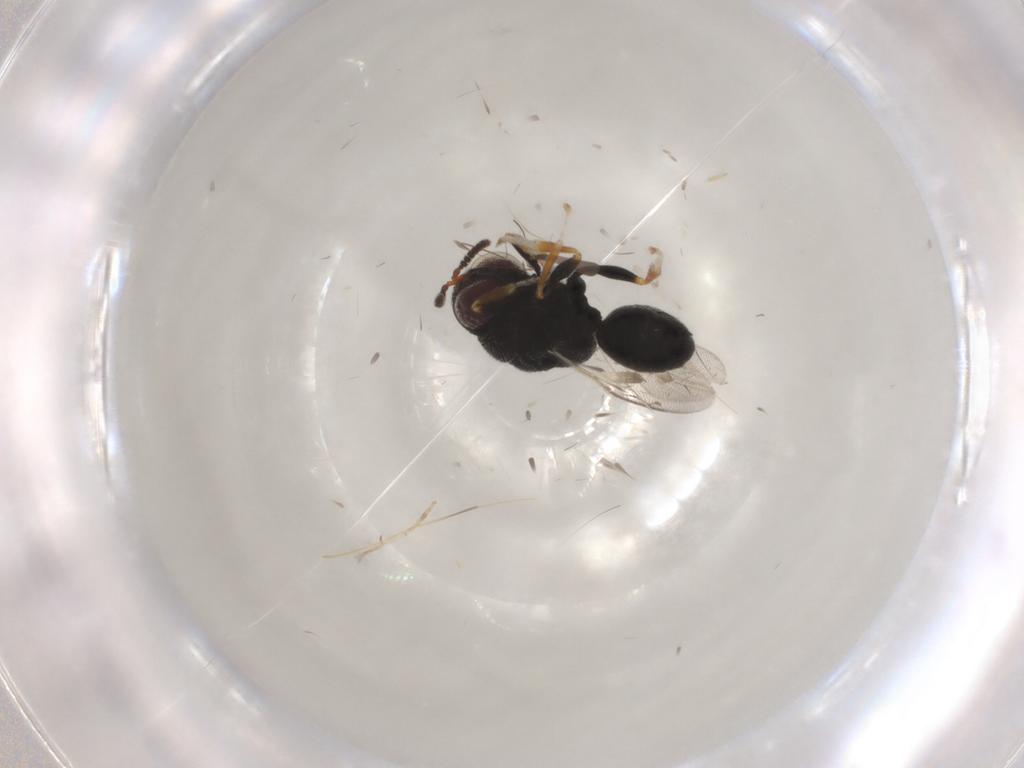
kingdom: Animalia
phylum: Arthropoda
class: Insecta
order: Hymenoptera
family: Eurytomidae
